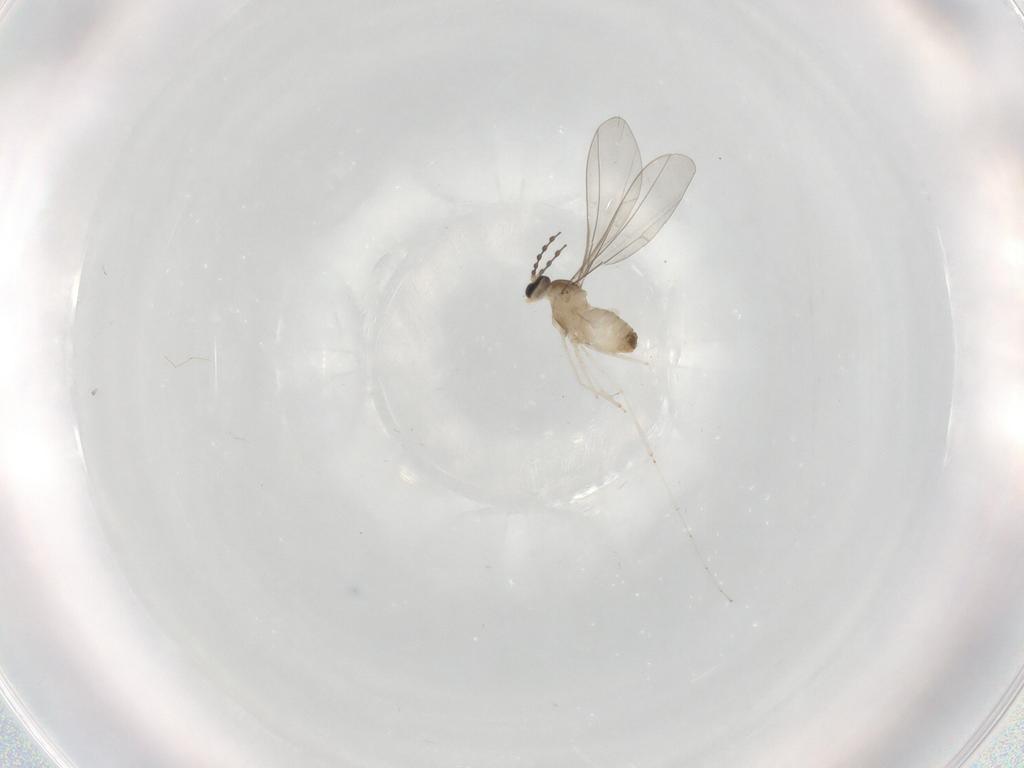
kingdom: Animalia
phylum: Arthropoda
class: Insecta
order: Diptera
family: Cecidomyiidae
